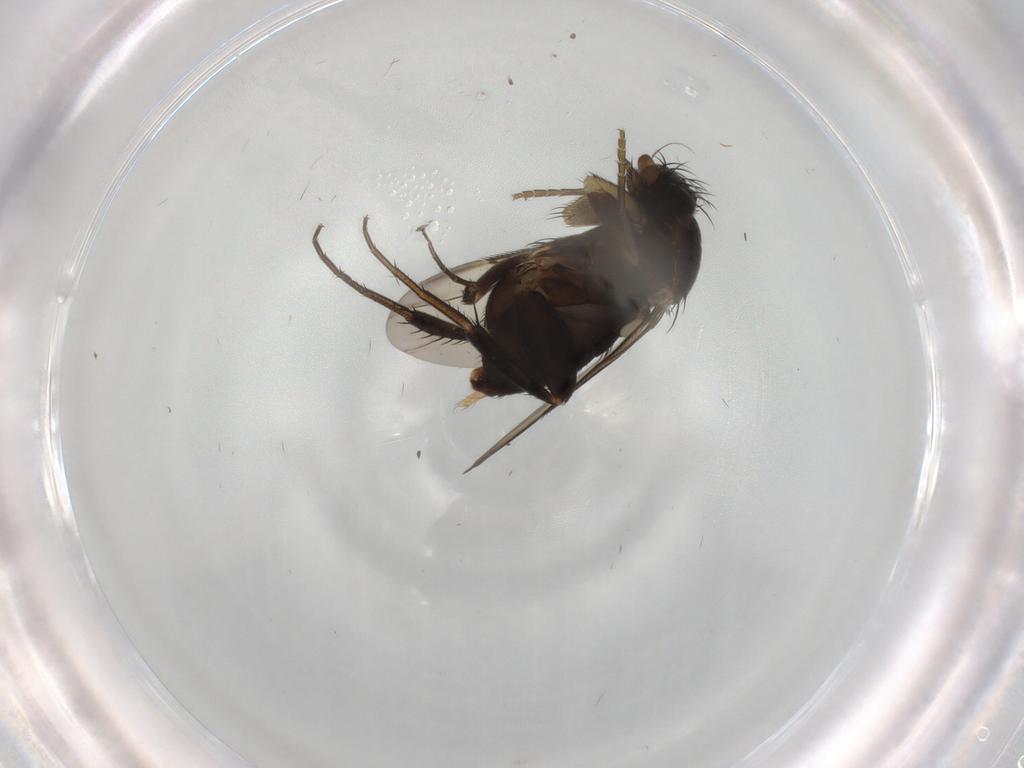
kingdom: Animalia
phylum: Arthropoda
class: Insecta
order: Diptera
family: Phoridae
